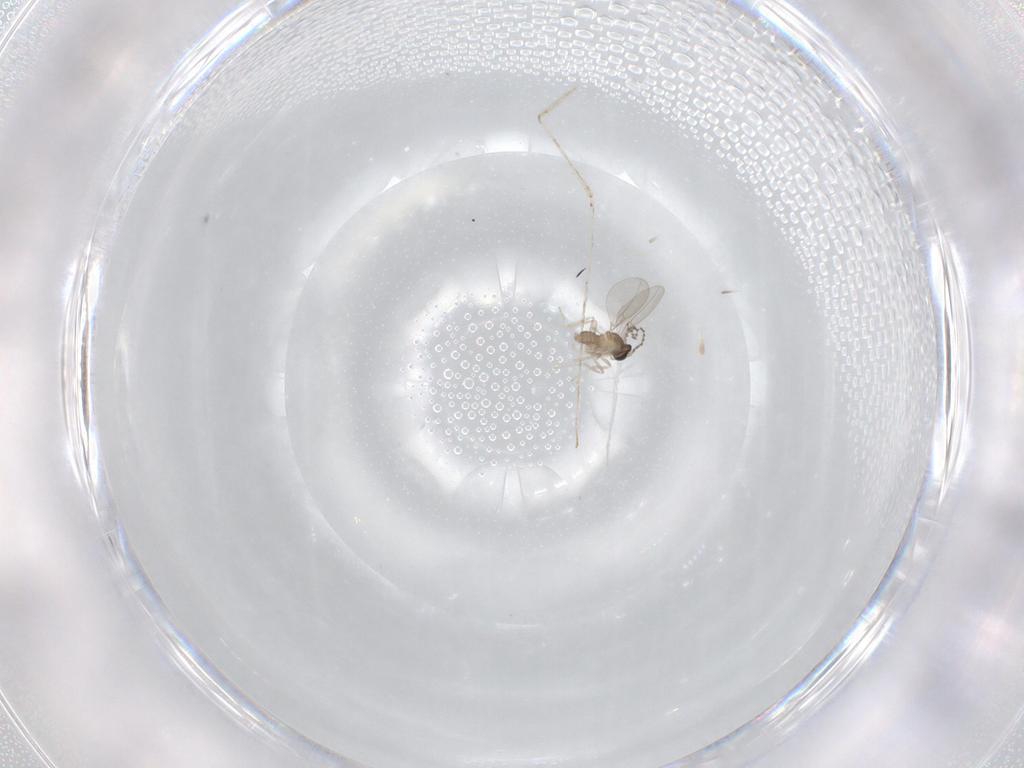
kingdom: Animalia
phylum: Arthropoda
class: Insecta
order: Diptera
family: Cecidomyiidae
